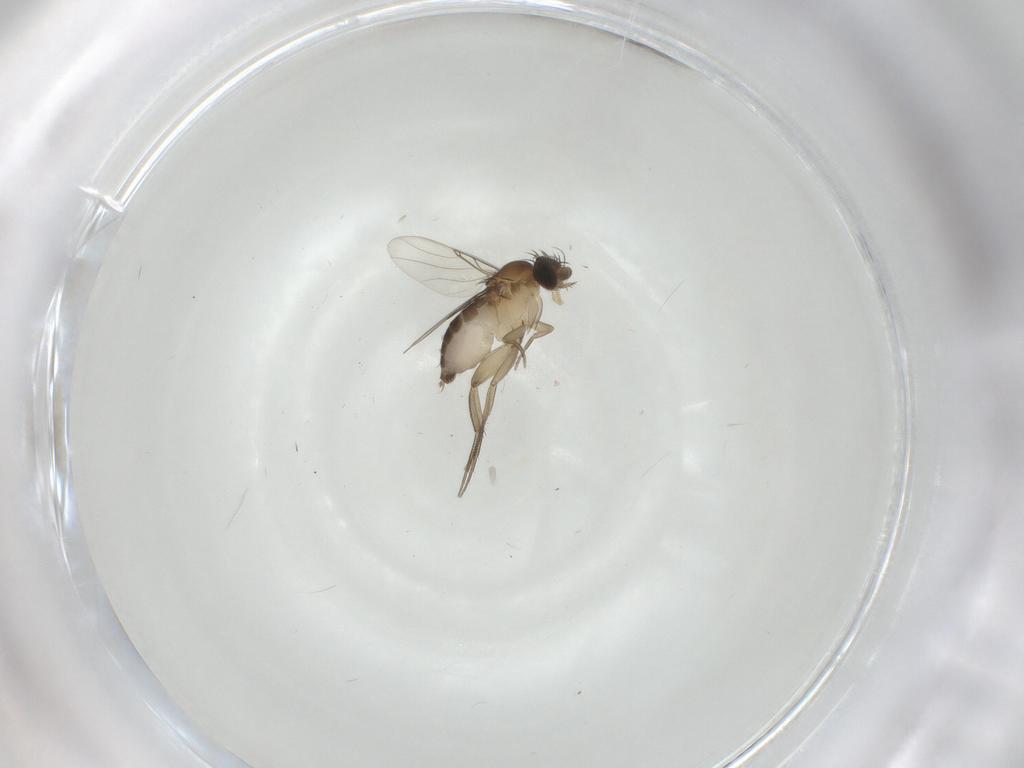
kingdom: Animalia
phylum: Arthropoda
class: Insecta
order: Diptera
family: Phoridae
